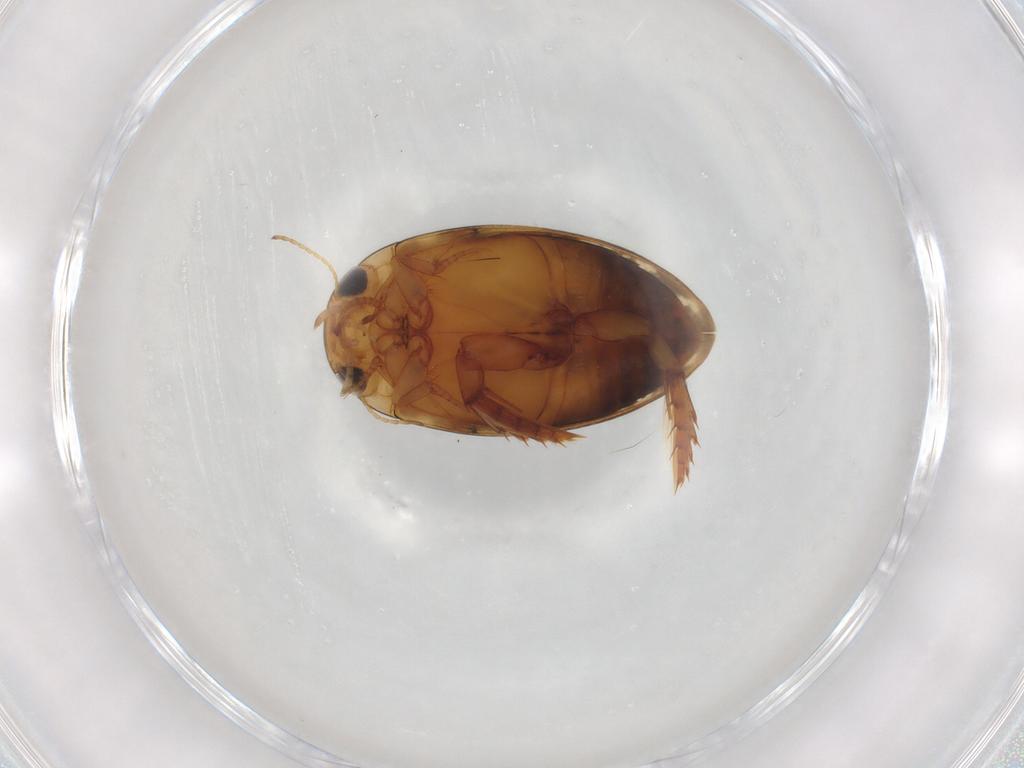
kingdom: Animalia
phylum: Arthropoda
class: Insecta
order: Coleoptera
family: Dytiscidae
